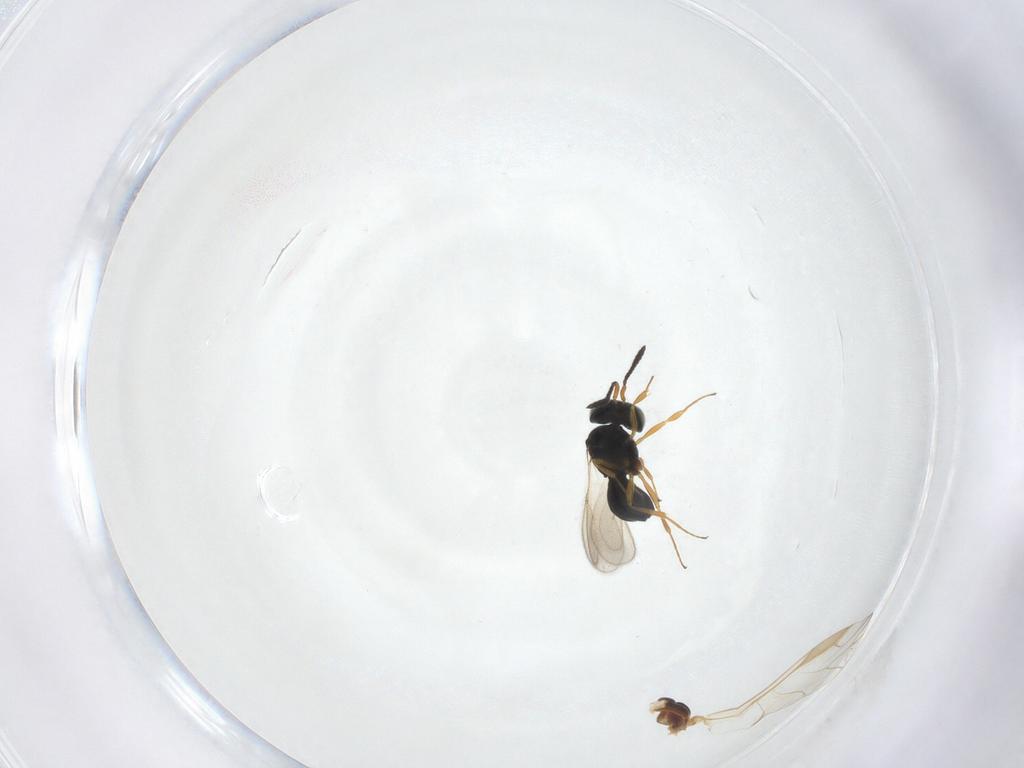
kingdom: Animalia
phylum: Arthropoda
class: Insecta
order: Hymenoptera
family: Scelionidae
